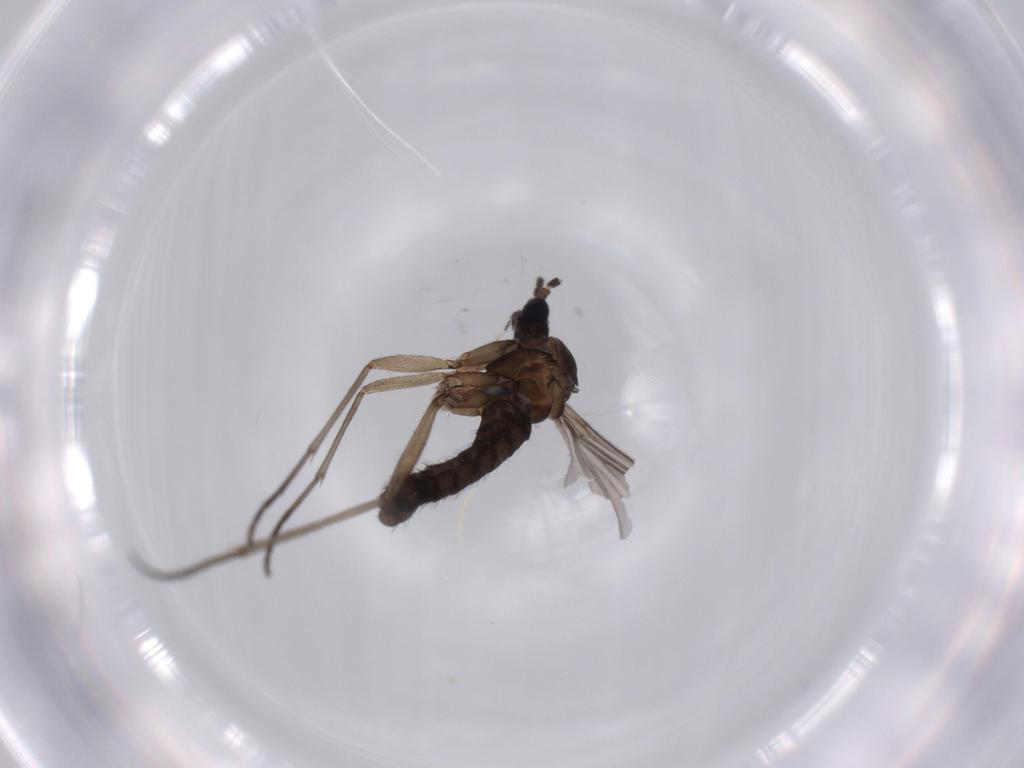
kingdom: Animalia
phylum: Arthropoda
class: Insecta
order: Diptera
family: Sciaridae
